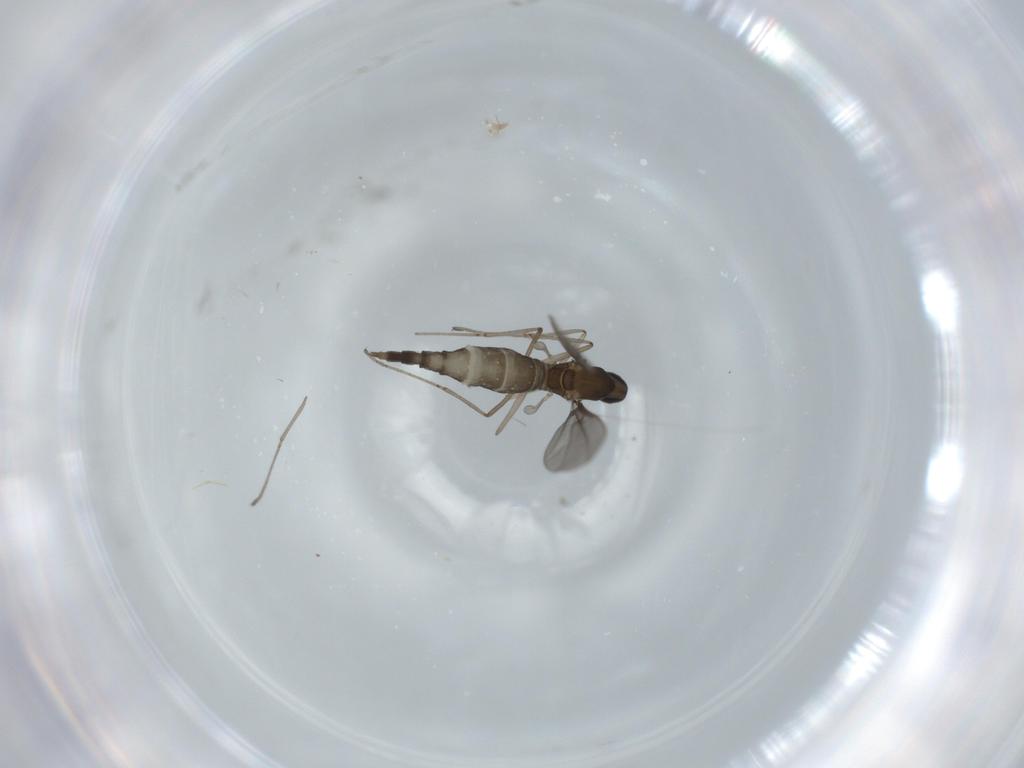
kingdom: Animalia
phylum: Arthropoda
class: Insecta
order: Diptera
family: Cecidomyiidae
